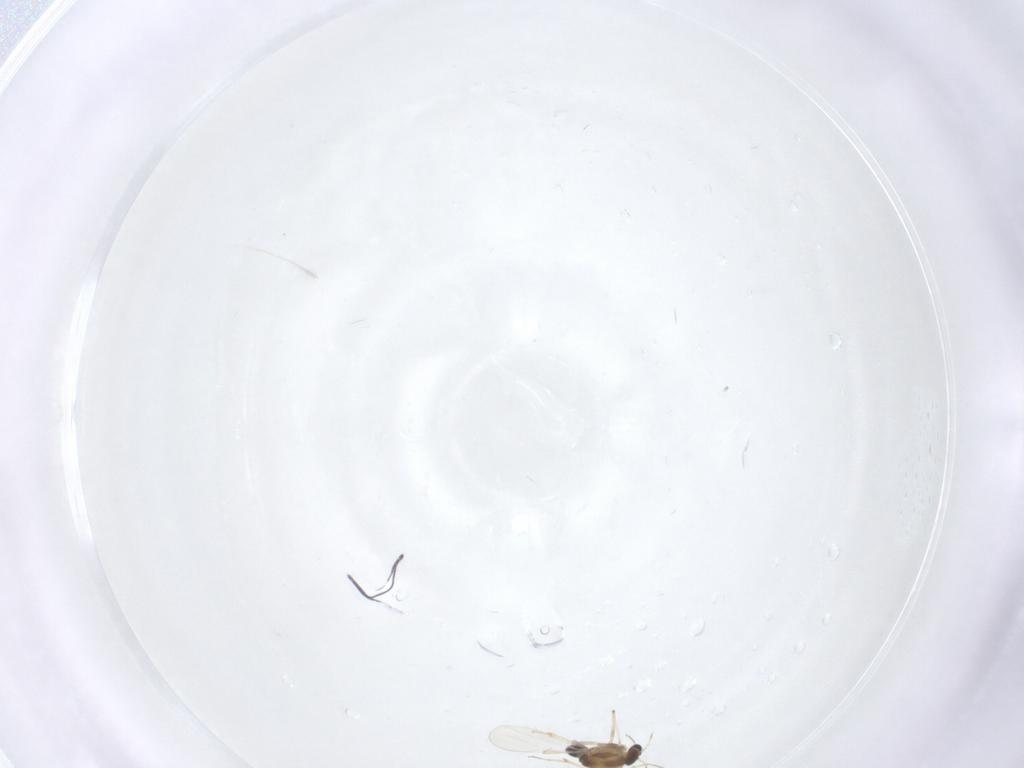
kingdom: Animalia
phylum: Arthropoda
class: Insecta
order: Diptera
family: Chironomidae
